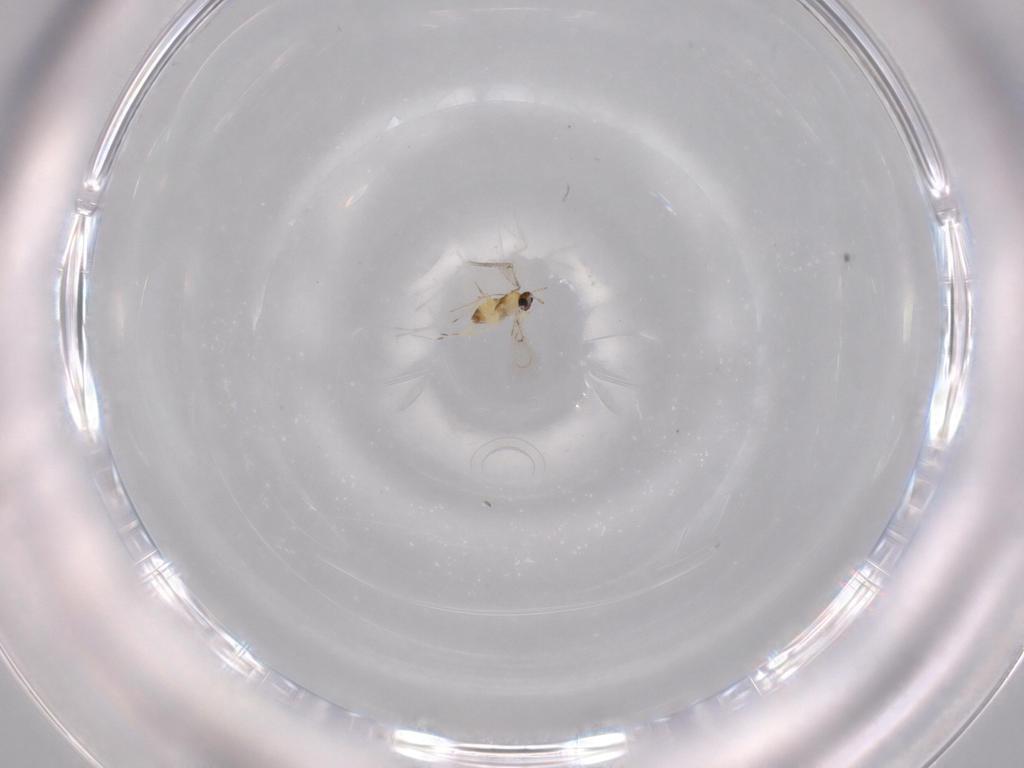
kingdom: Animalia
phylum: Arthropoda
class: Insecta
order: Hymenoptera
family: Trichogrammatidae
